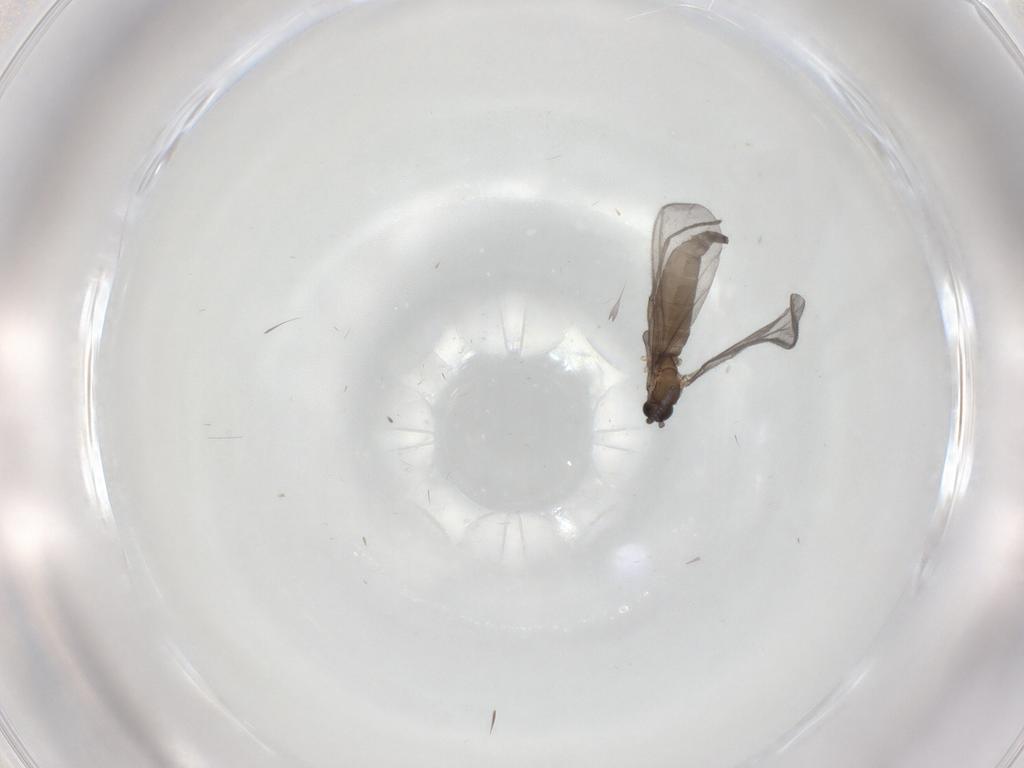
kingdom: Animalia
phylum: Arthropoda
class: Insecta
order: Diptera
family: Sciaridae
